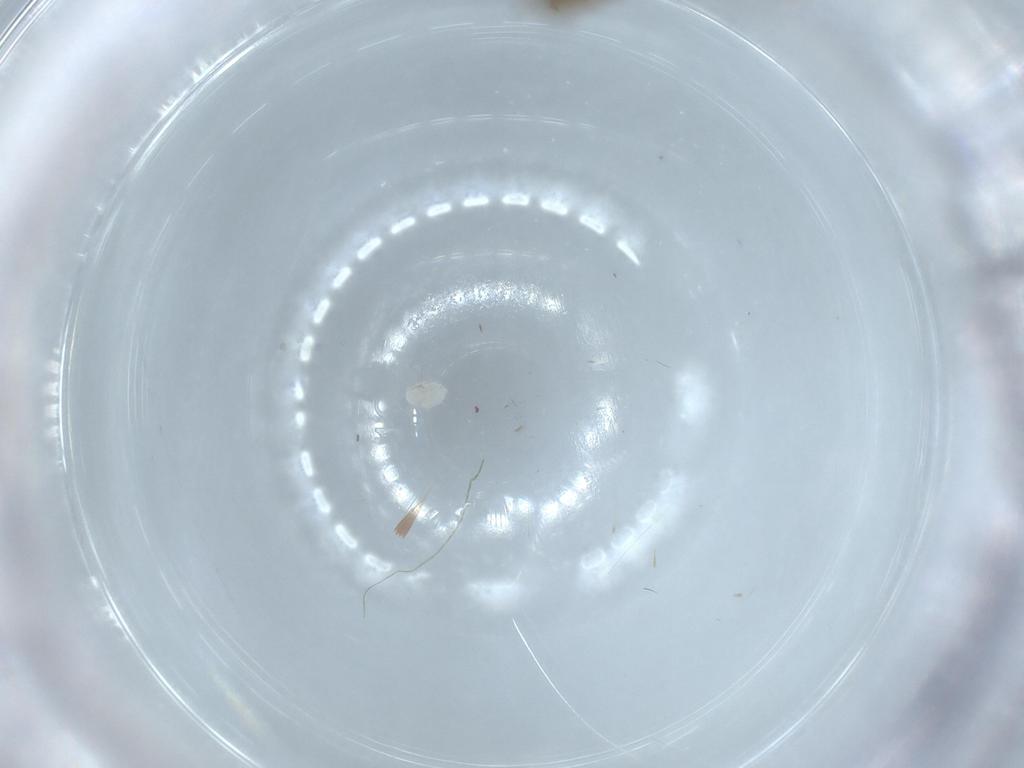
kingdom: Animalia
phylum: Arthropoda
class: Insecta
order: Diptera
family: Chironomidae
